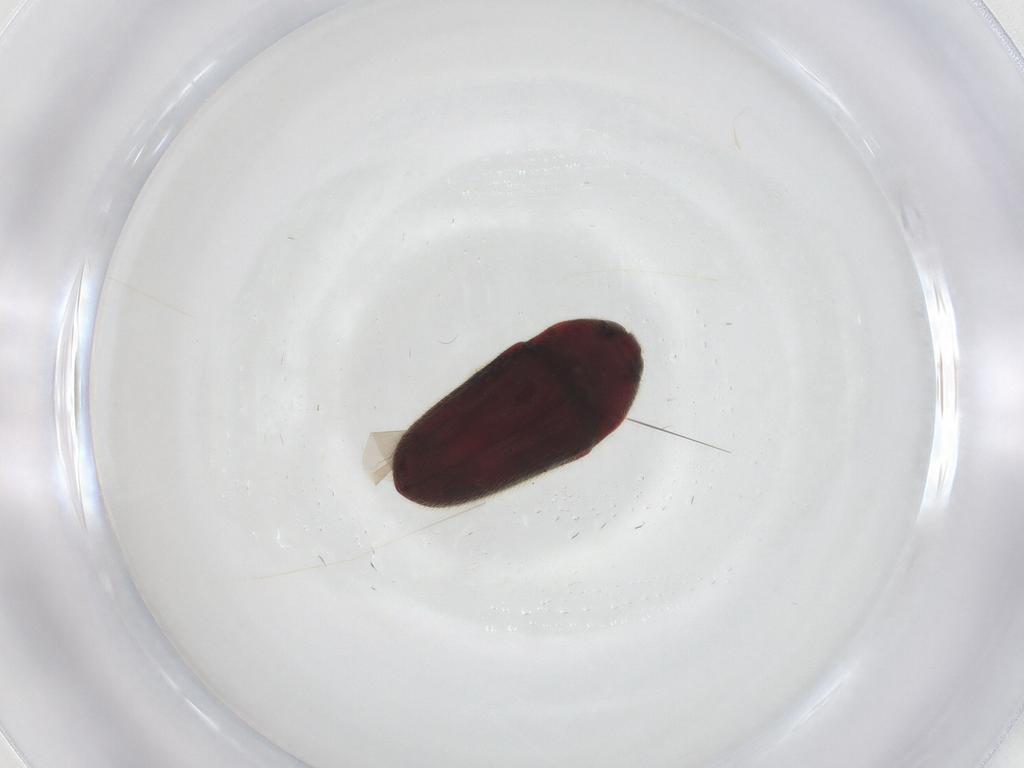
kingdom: Animalia
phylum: Arthropoda
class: Insecta
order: Coleoptera
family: Throscidae
